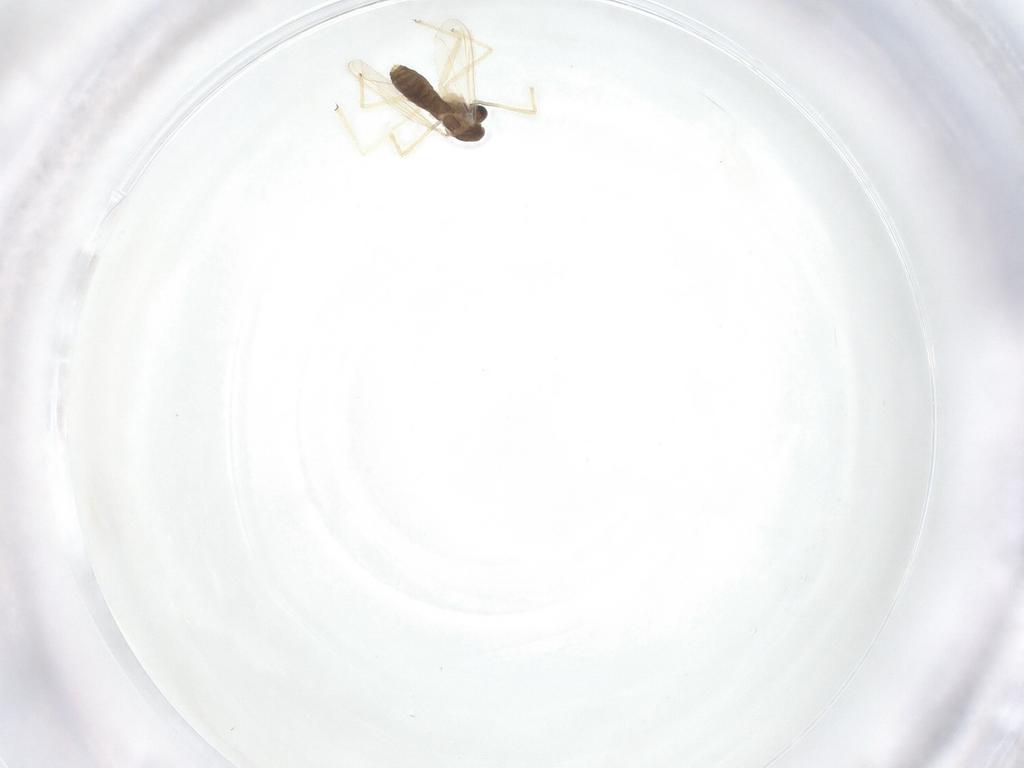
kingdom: Animalia
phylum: Arthropoda
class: Insecta
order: Diptera
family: Chironomidae
